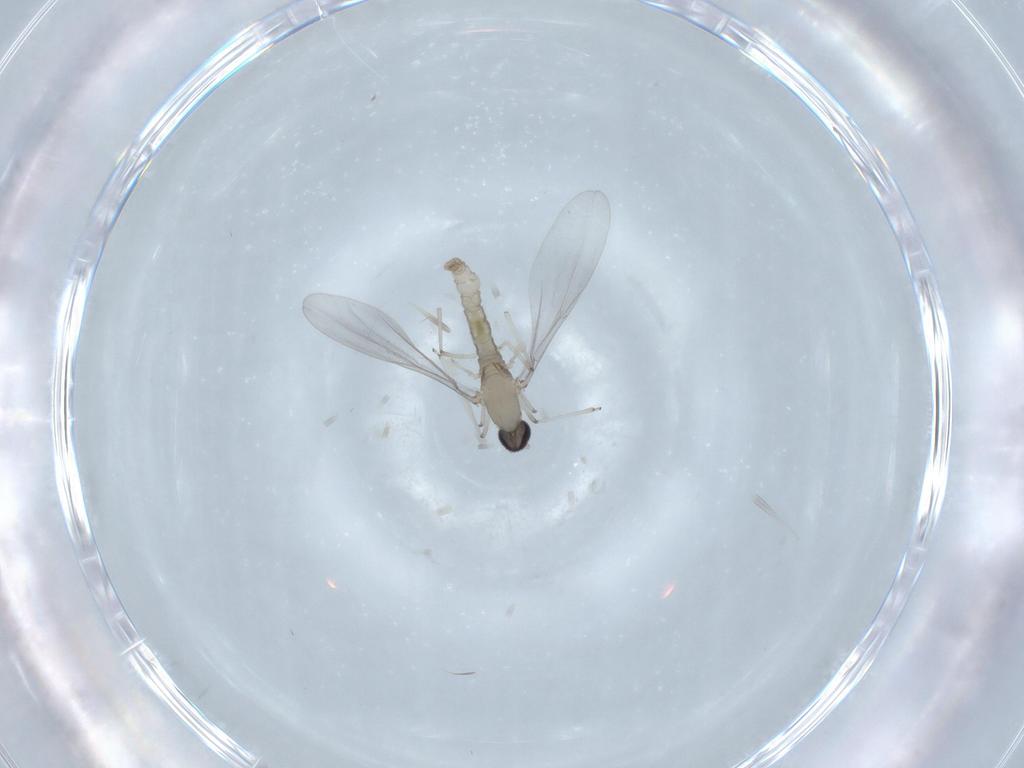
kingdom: Animalia
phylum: Arthropoda
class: Insecta
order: Diptera
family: Cecidomyiidae
